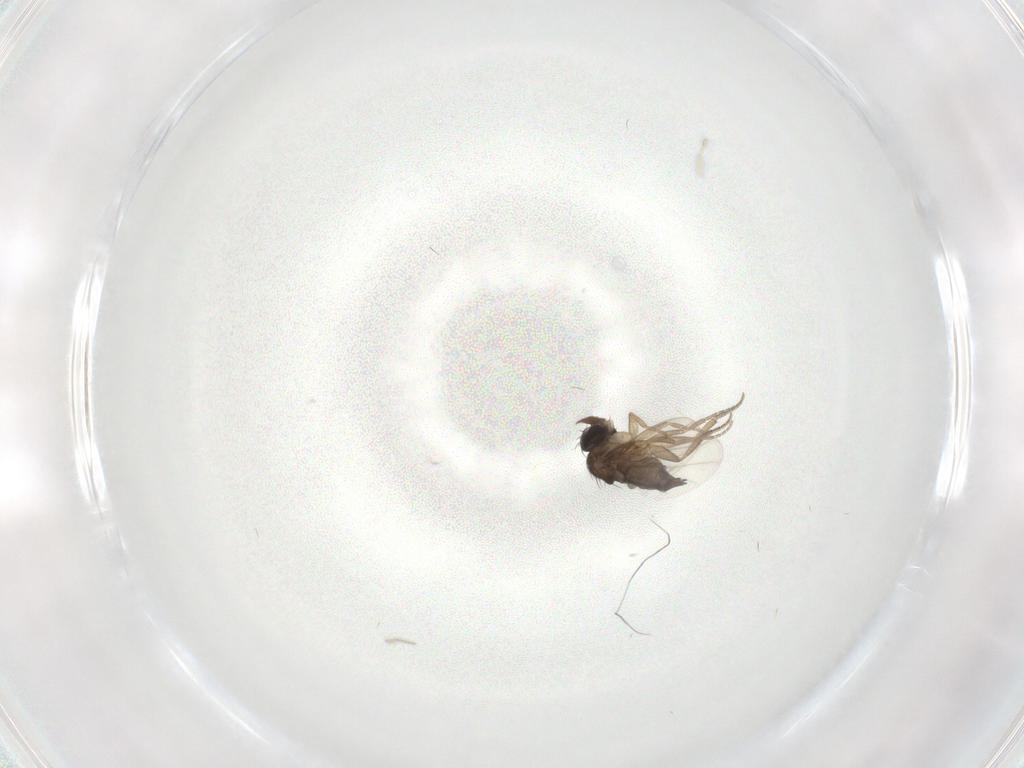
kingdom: Animalia
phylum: Arthropoda
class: Insecta
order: Diptera
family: Phoridae
